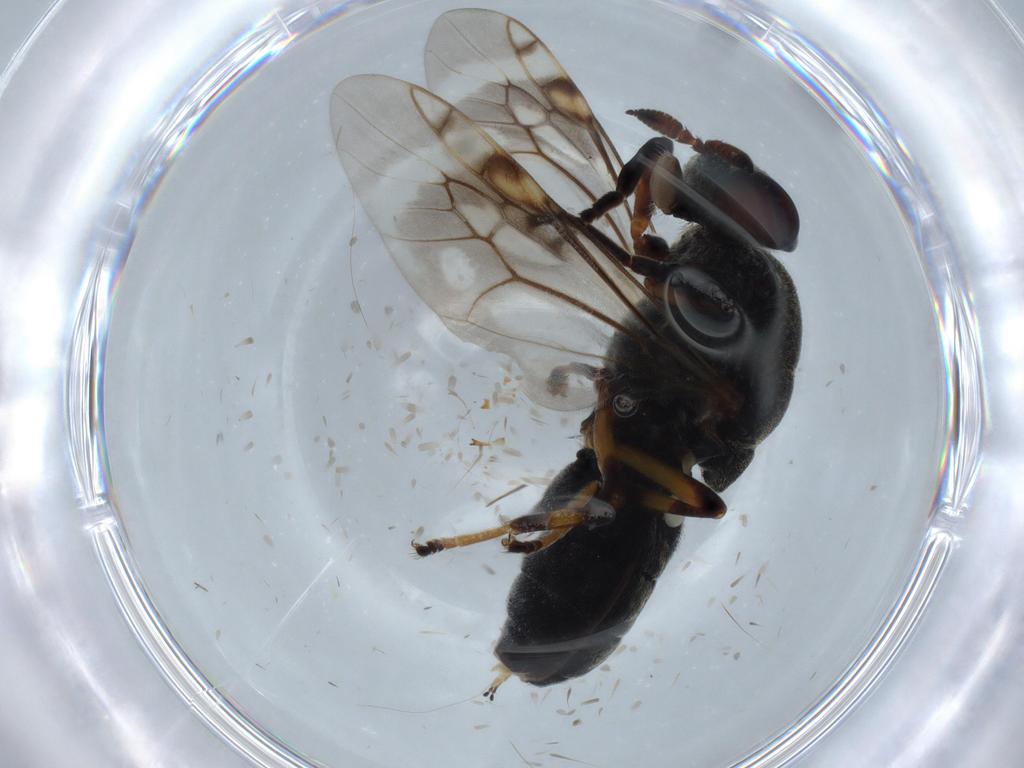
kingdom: Animalia
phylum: Arthropoda
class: Insecta
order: Diptera
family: Stratiomyidae
